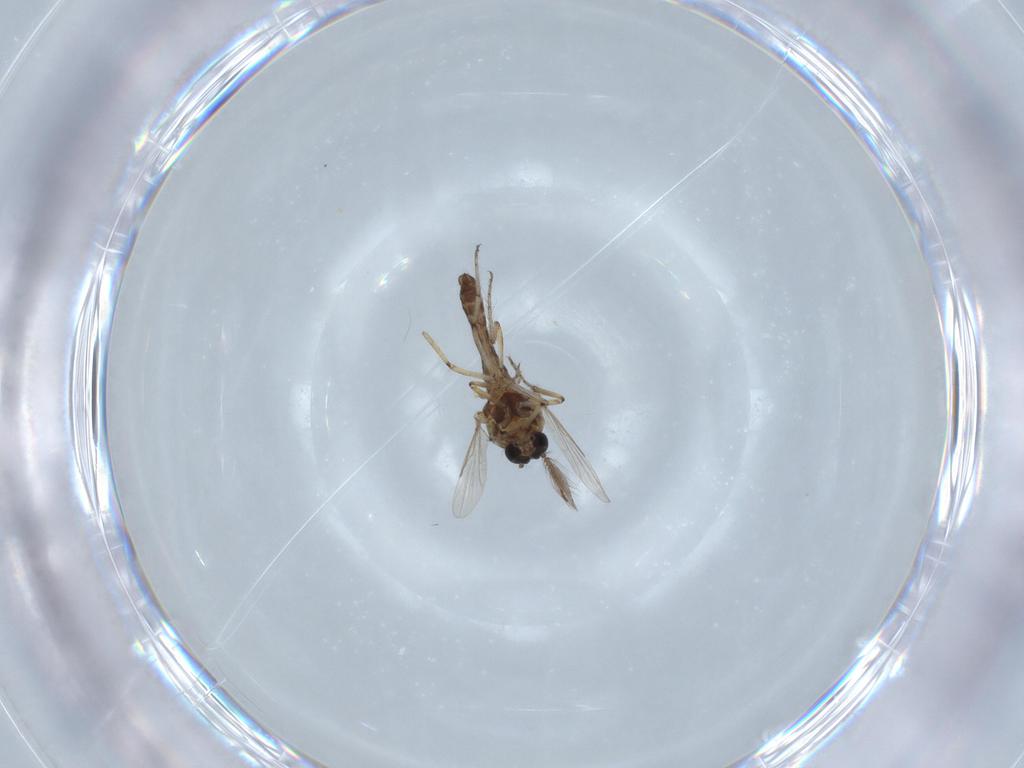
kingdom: Animalia
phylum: Arthropoda
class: Insecta
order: Diptera
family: Ceratopogonidae
